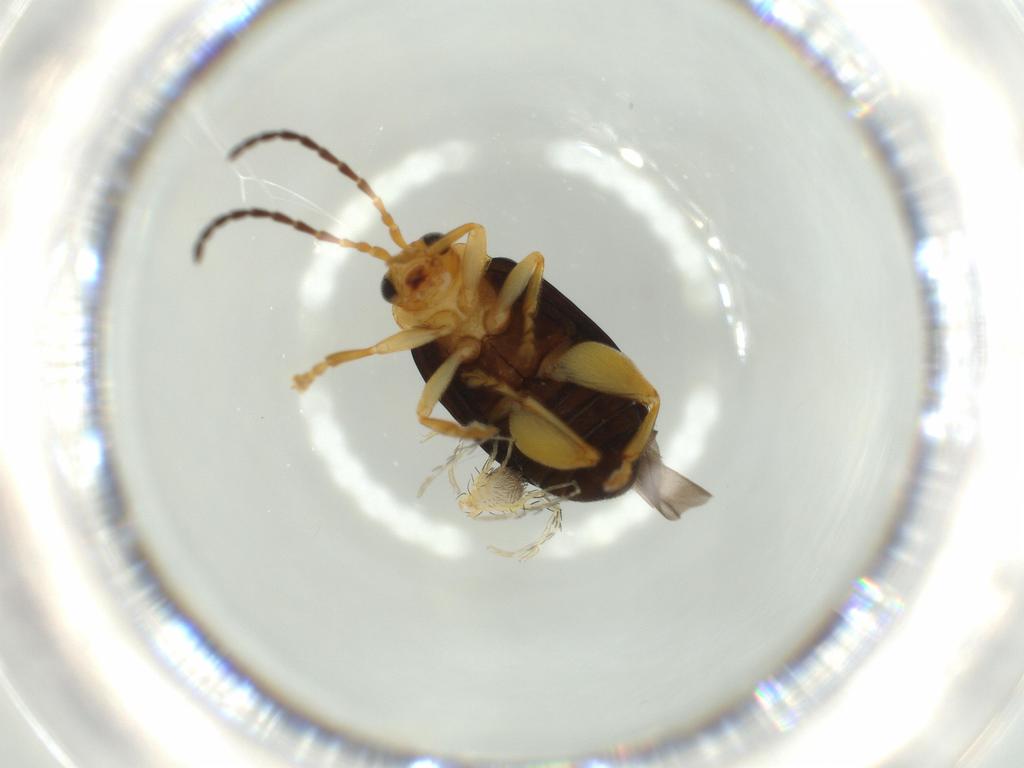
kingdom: Animalia
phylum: Arthropoda
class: Insecta
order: Coleoptera
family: Chrysomelidae
